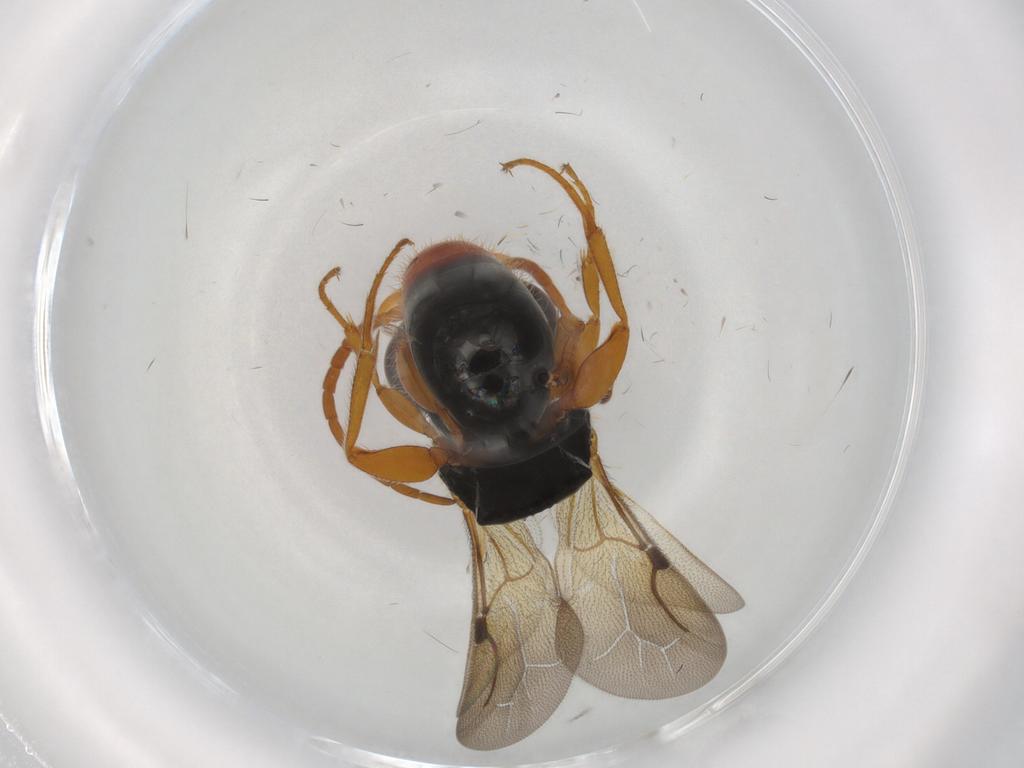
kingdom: Animalia
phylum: Arthropoda
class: Insecta
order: Hymenoptera
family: Bethylidae
